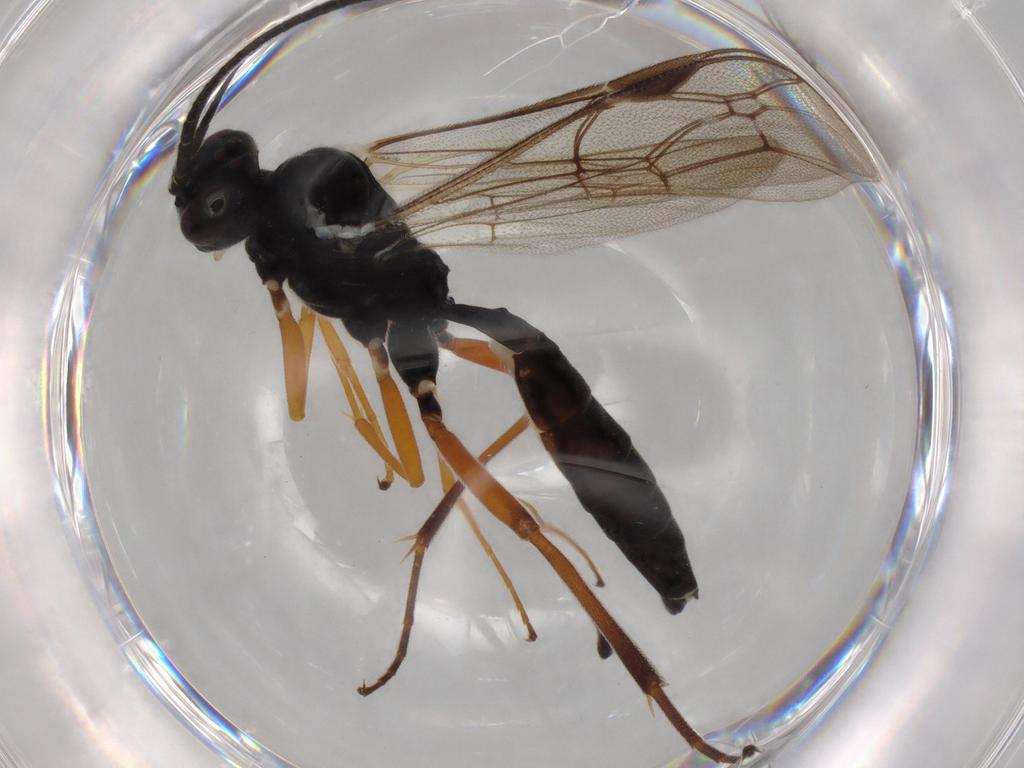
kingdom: Animalia
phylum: Arthropoda
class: Insecta
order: Hymenoptera
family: Ichneumonidae
